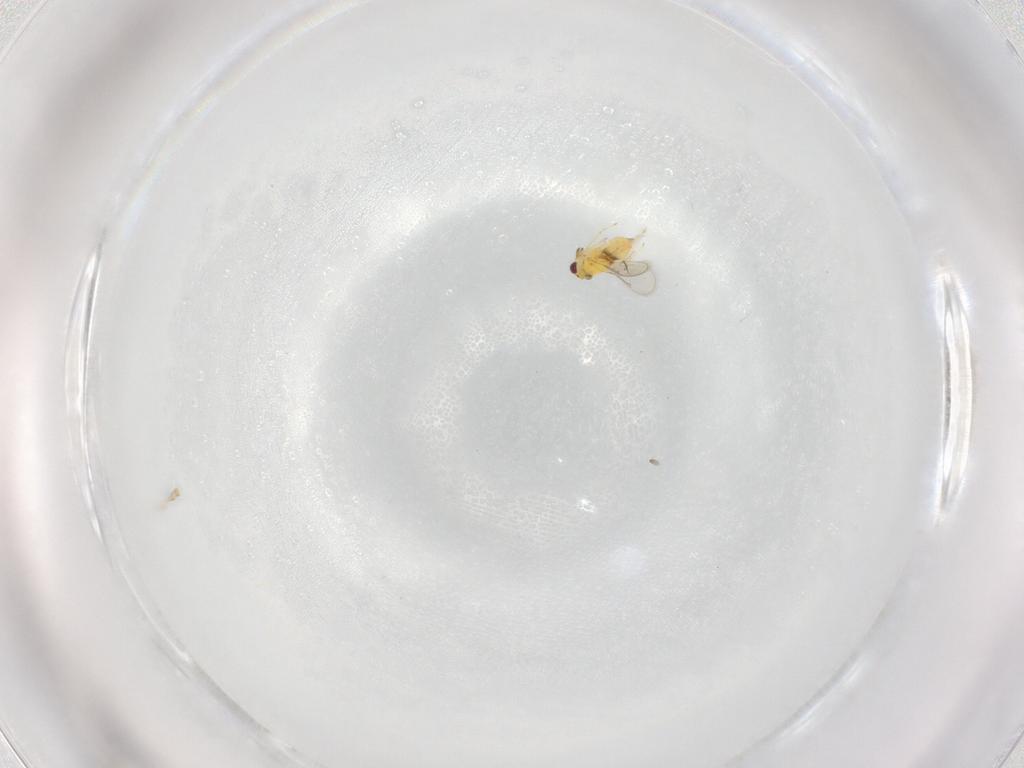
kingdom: Animalia
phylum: Arthropoda
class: Insecta
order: Hymenoptera
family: Aphelinidae
